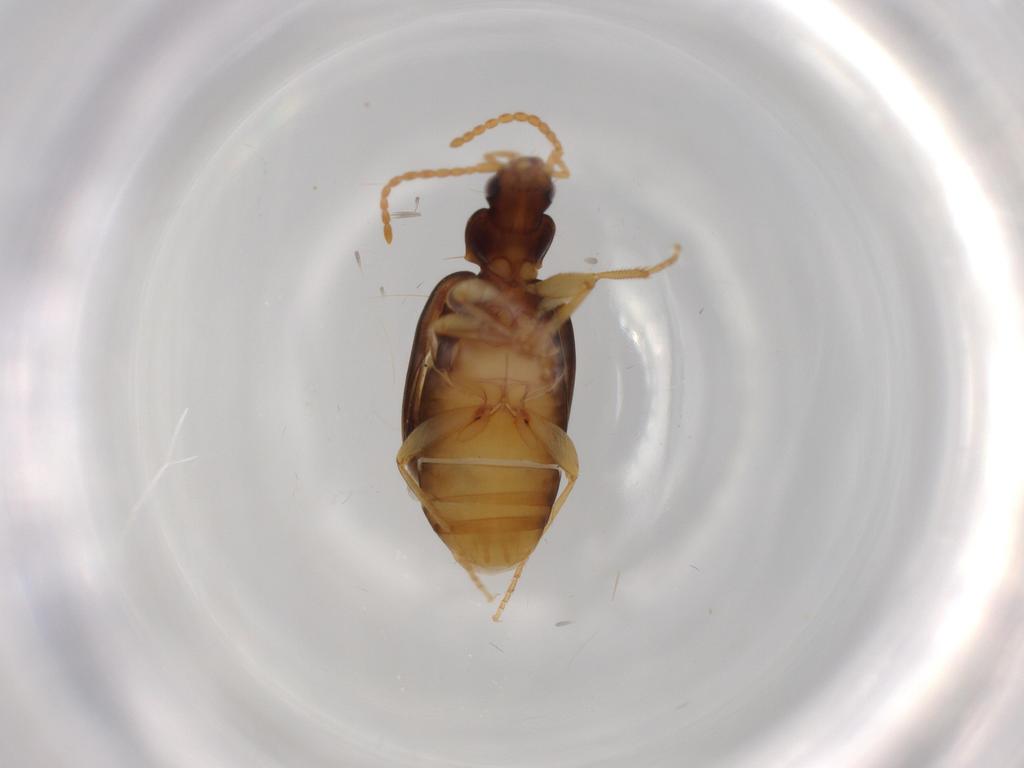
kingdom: Animalia
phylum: Arthropoda
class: Insecta
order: Coleoptera
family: Carabidae
